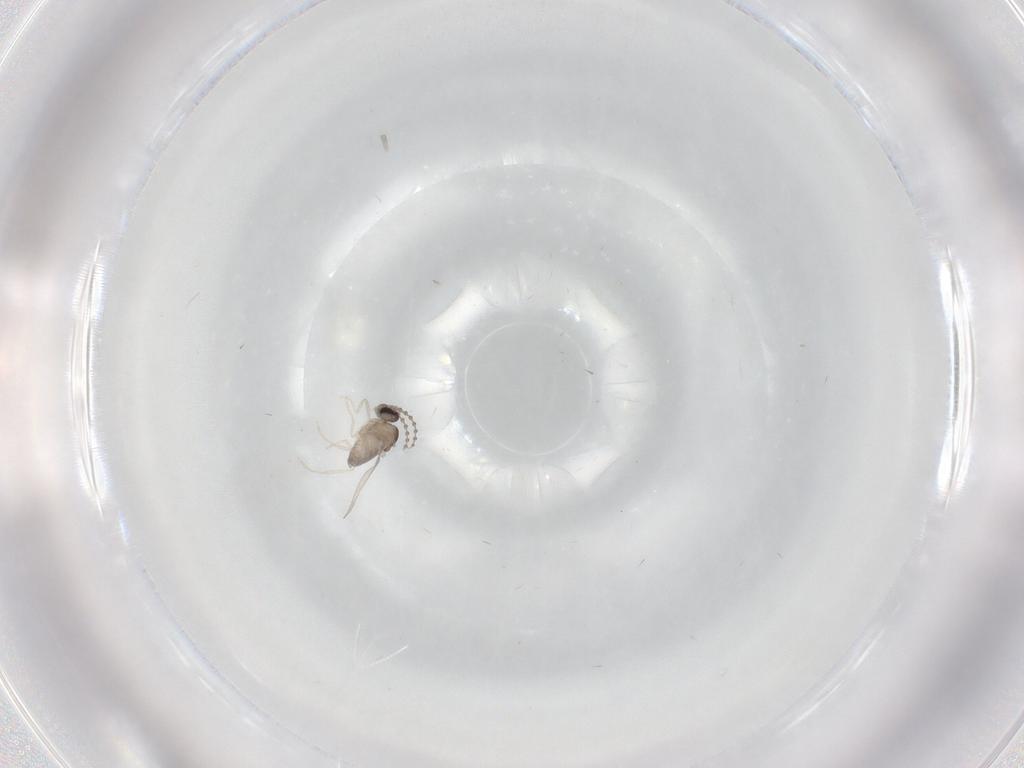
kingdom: Animalia
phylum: Arthropoda
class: Insecta
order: Diptera
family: Cecidomyiidae
